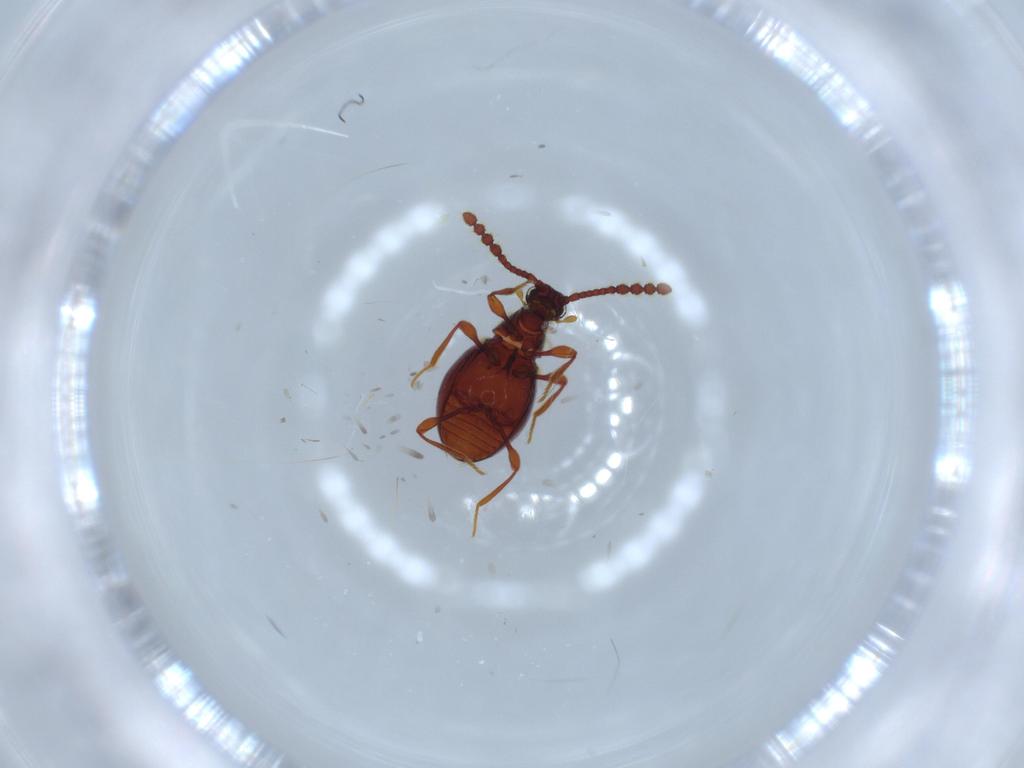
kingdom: Animalia
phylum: Arthropoda
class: Insecta
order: Coleoptera
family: Staphylinidae
